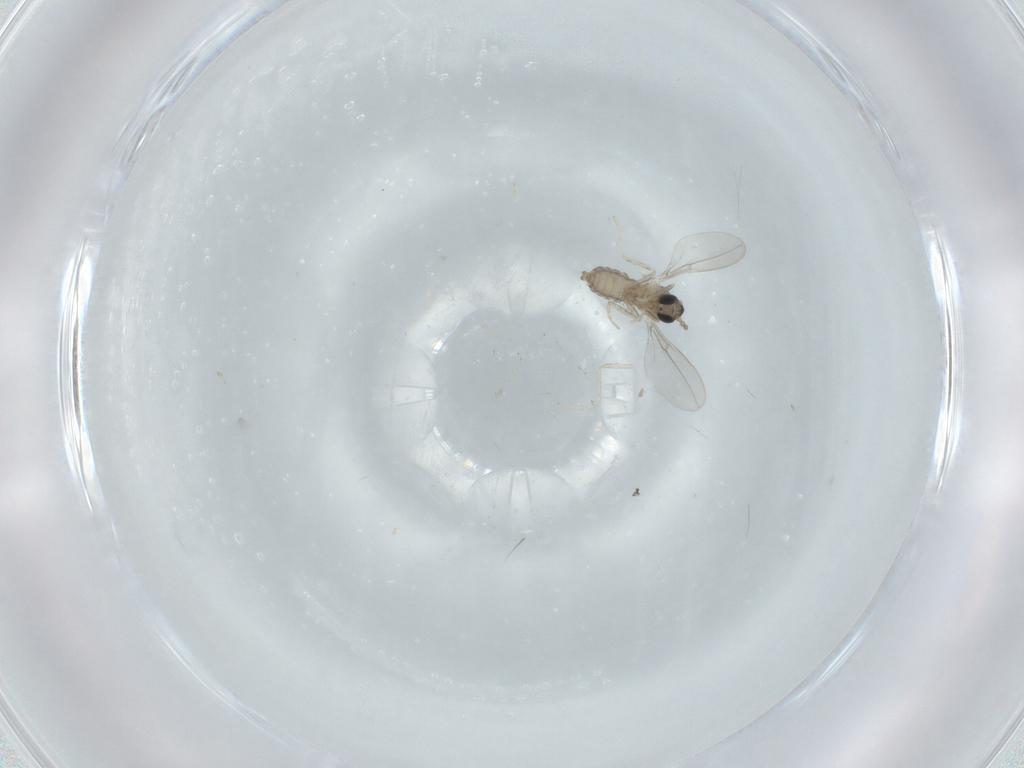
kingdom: Animalia
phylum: Arthropoda
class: Insecta
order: Diptera
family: Cecidomyiidae
